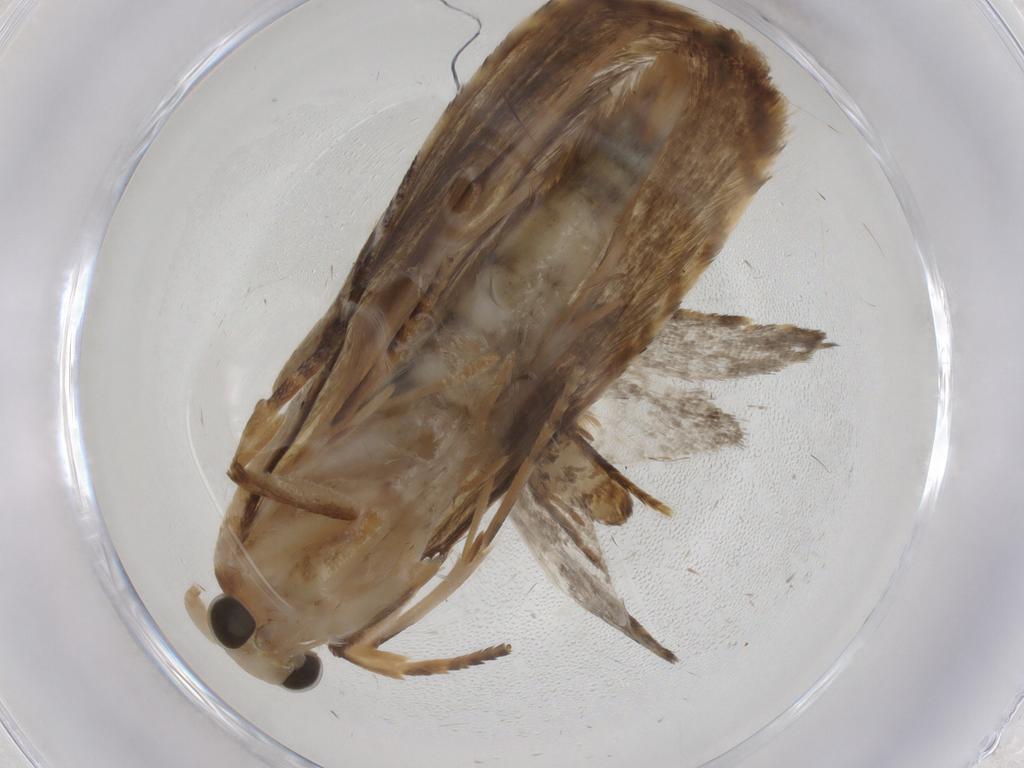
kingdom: Animalia
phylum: Arthropoda
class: Insecta
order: Lepidoptera
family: Psychidae
